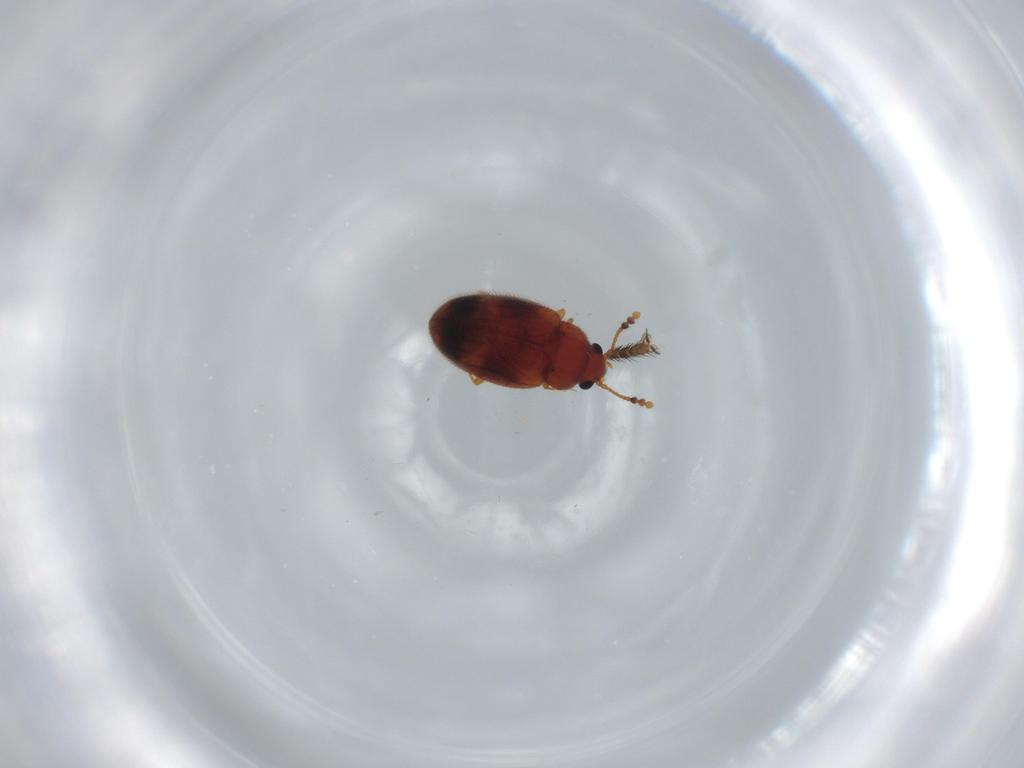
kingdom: Animalia
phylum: Arthropoda
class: Insecta
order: Coleoptera
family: Erotylidae
